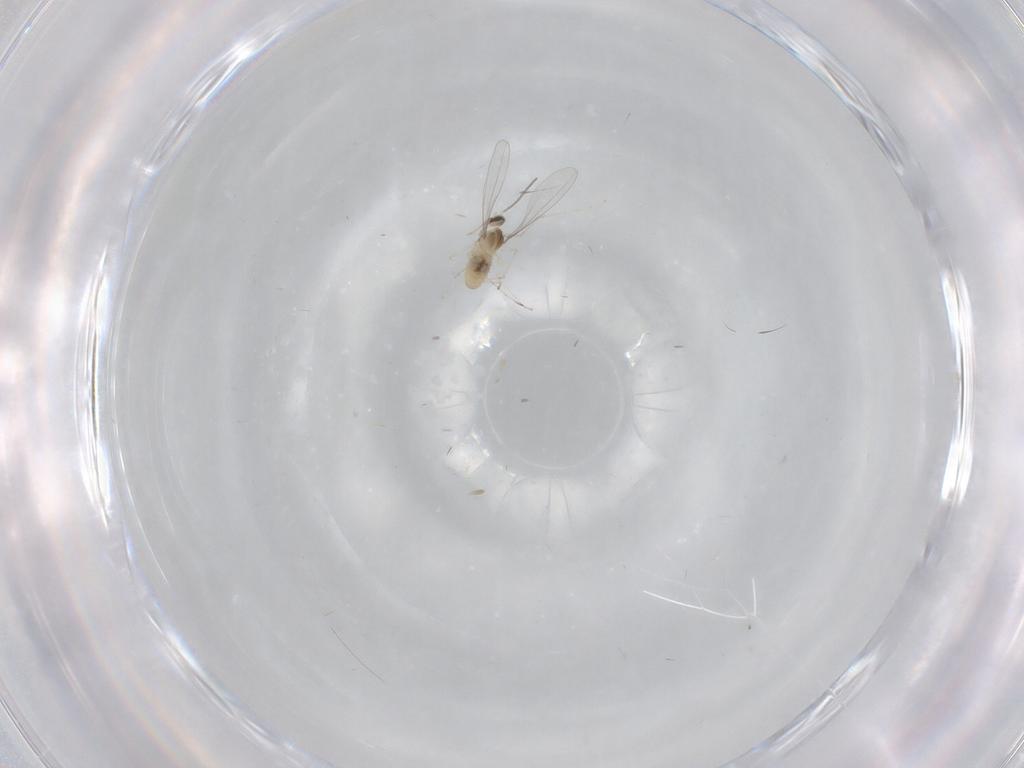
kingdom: Animalia
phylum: Arthropoda
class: Insecta
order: Diptera
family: Cecidomyiidae
